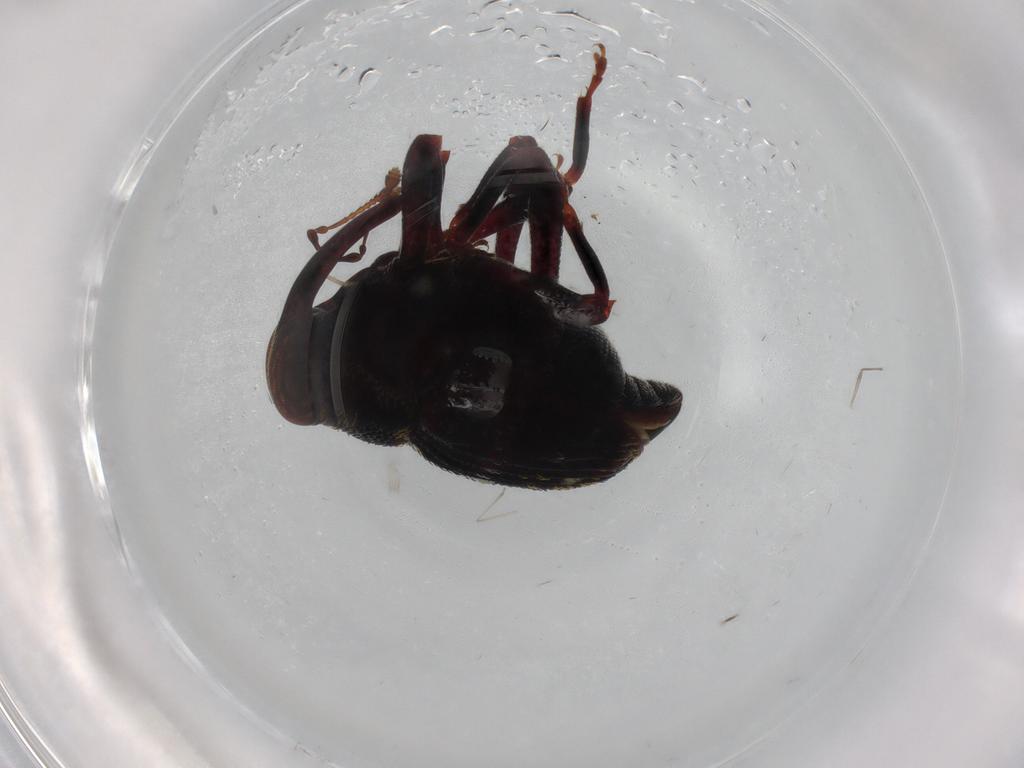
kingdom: Animalia
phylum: Arthropoda
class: Insecta
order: Coleoptera
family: Curculionidae
